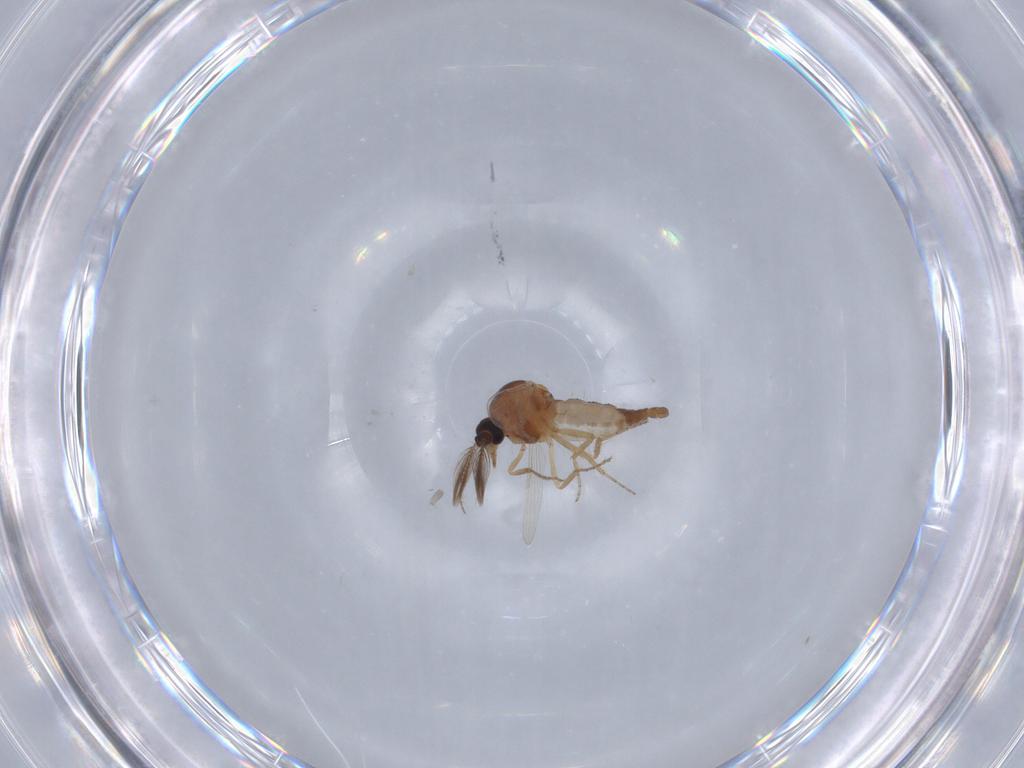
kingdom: Animalia
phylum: Arthropoda
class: Insecta
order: Diptera
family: Ceratopogonidae
